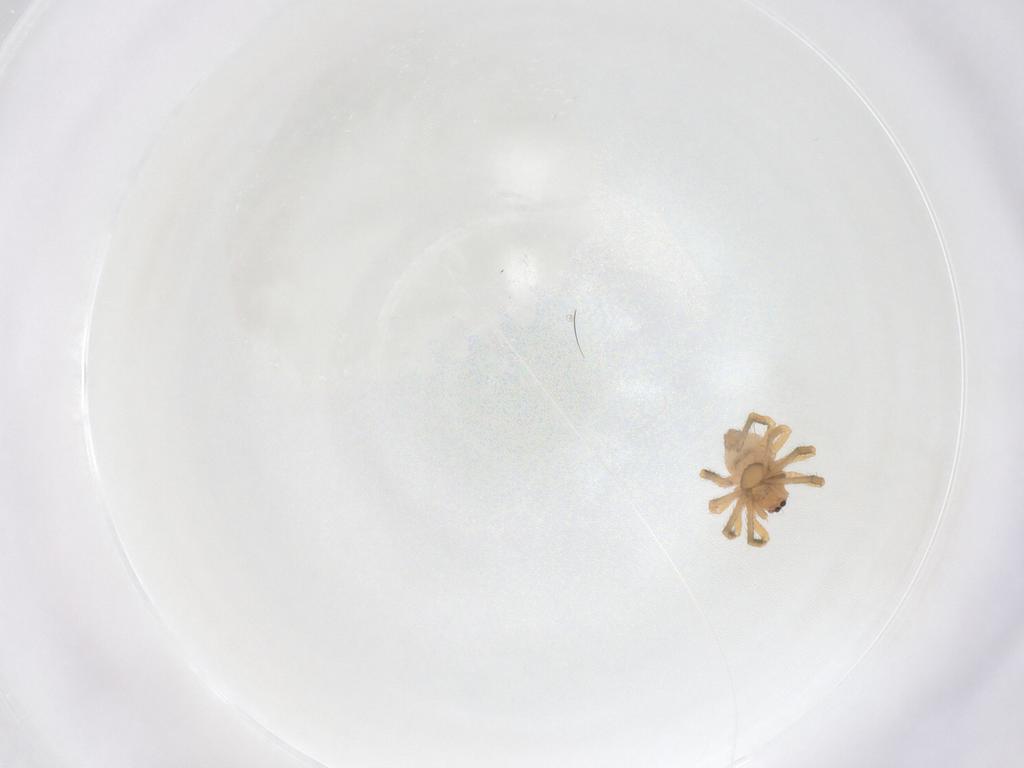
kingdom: Animalia
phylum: Arthropoda
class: Arachnida
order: Araneae
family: Theridiidae
